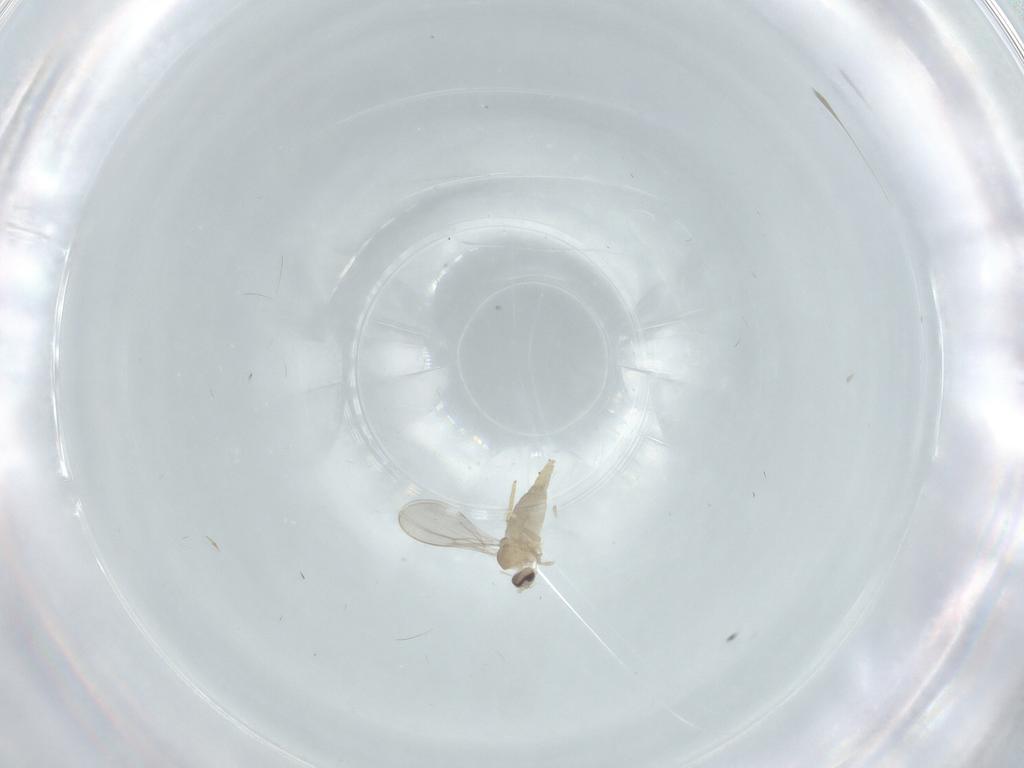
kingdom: Animalia
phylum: Arthropoda
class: Insecta
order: Diptera
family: Cecidomyiidae
